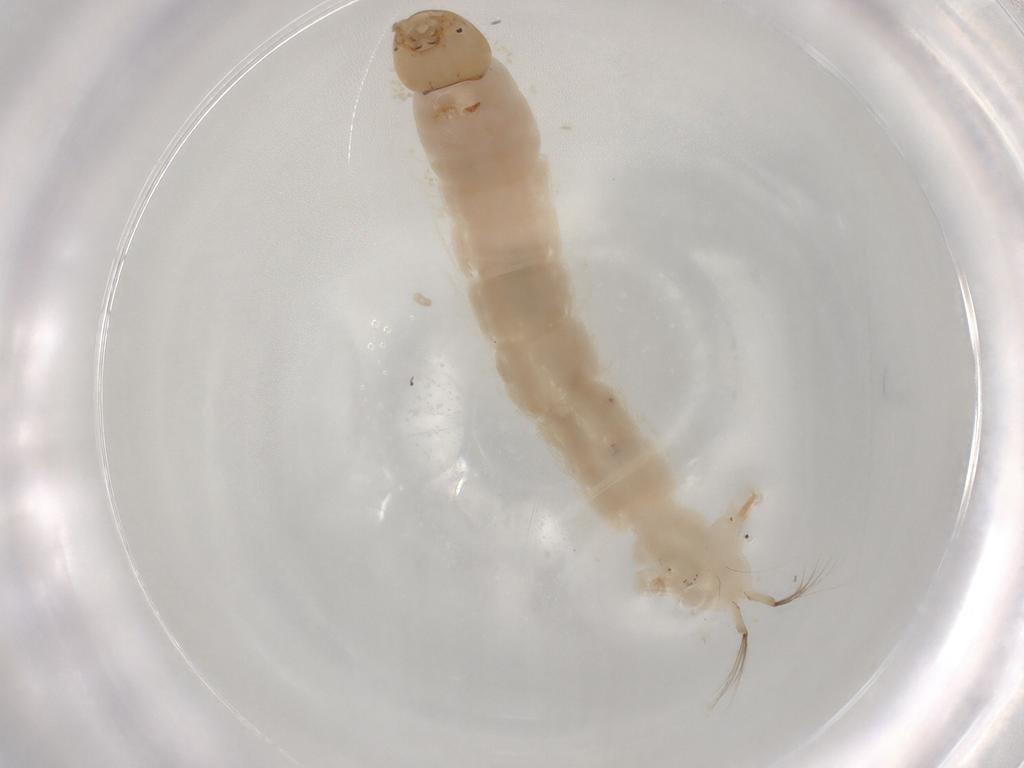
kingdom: Animalia
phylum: Arthropoda
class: Insecta
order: Diptera
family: Chironomidae
